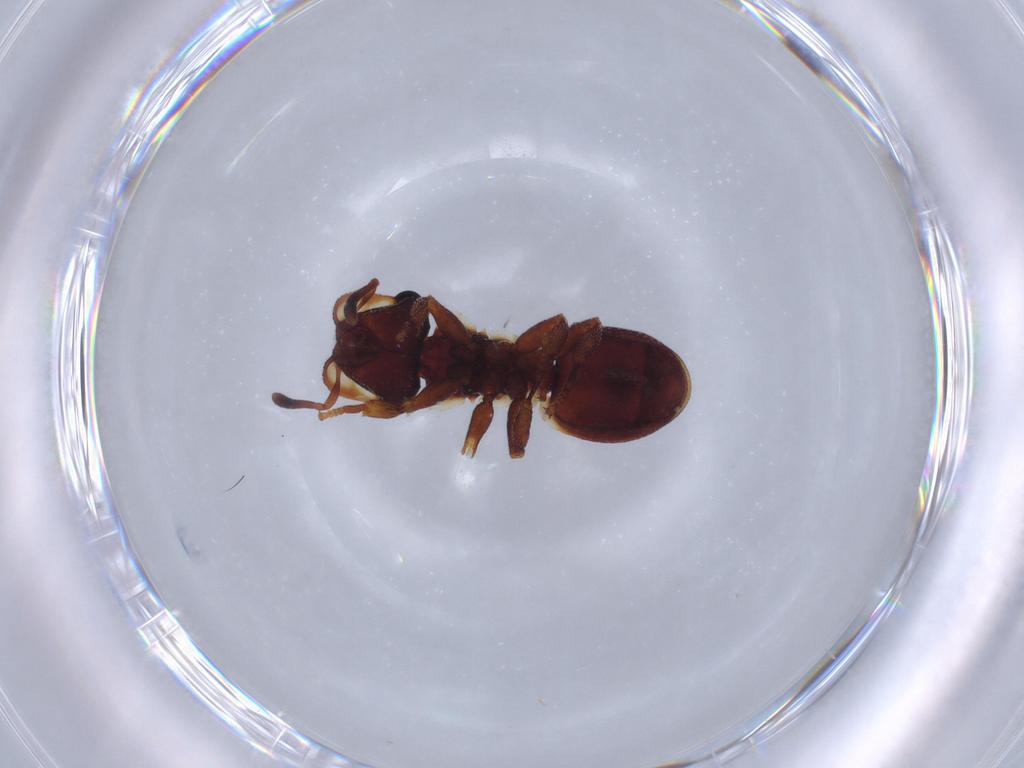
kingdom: Animalia
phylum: Arthropoda
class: Insecta
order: Hymenoptera
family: Formicidae
